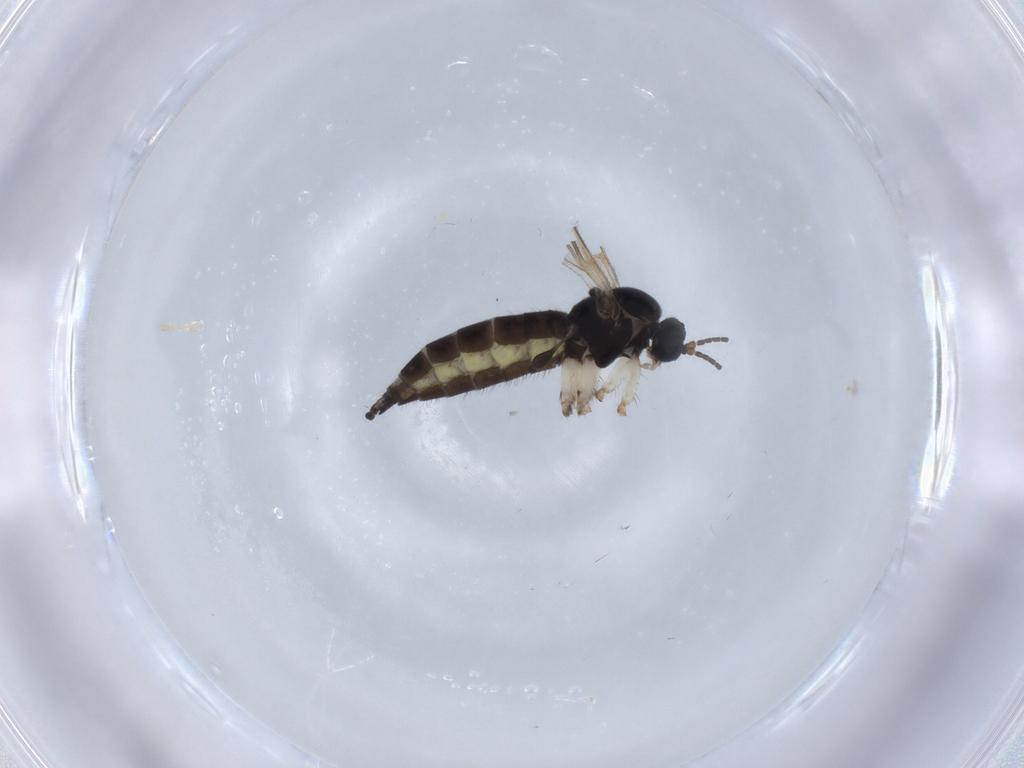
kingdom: Animalia
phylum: Arthropoda
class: Insecta
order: Diptera
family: Sciaridae
